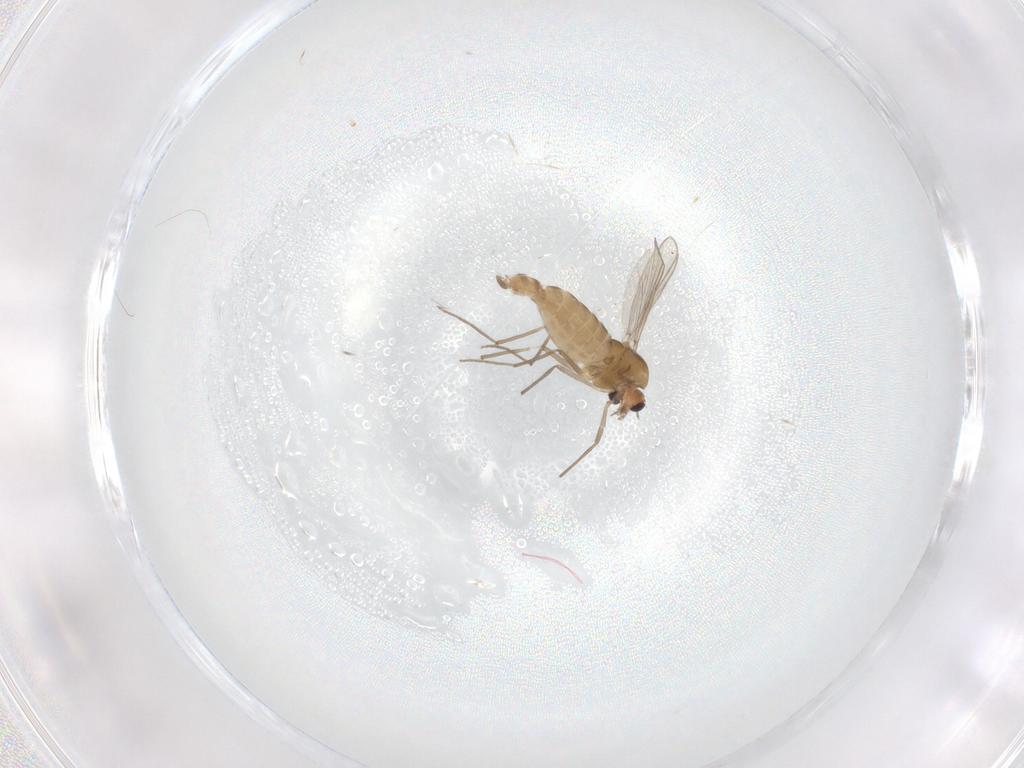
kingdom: Animalia
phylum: Arthropoda
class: Insecta
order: Diptera
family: Chironomidae
